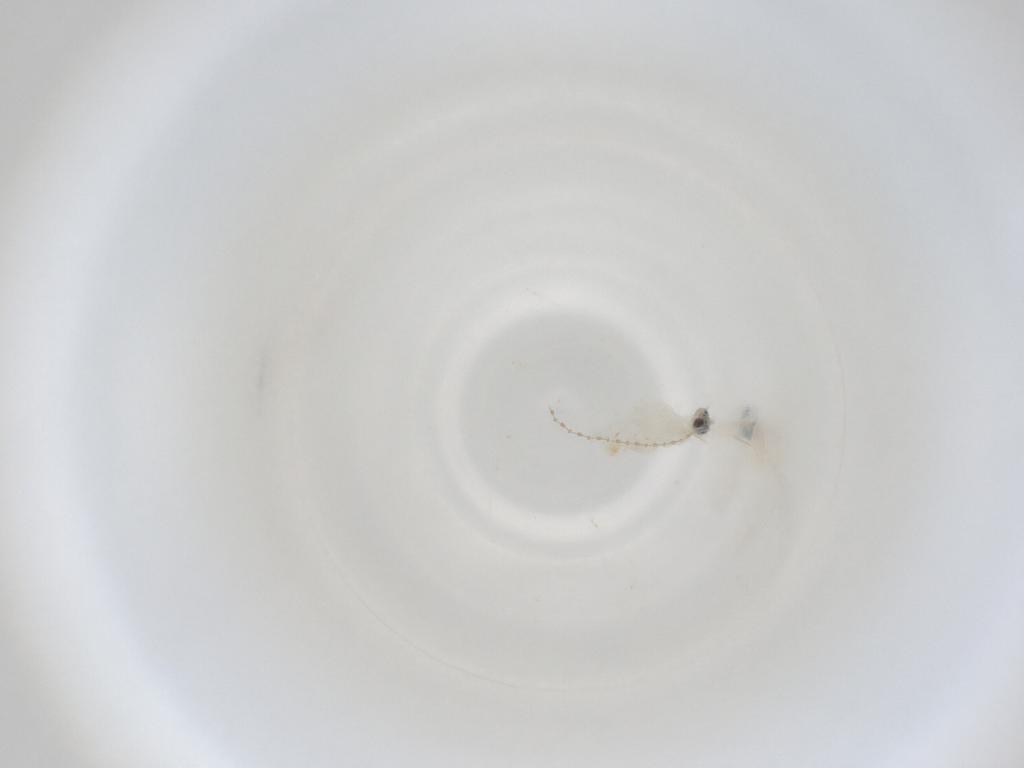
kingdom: Animalia
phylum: Arthropoda
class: Insecta
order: Diptera
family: Cecidomyiidae
